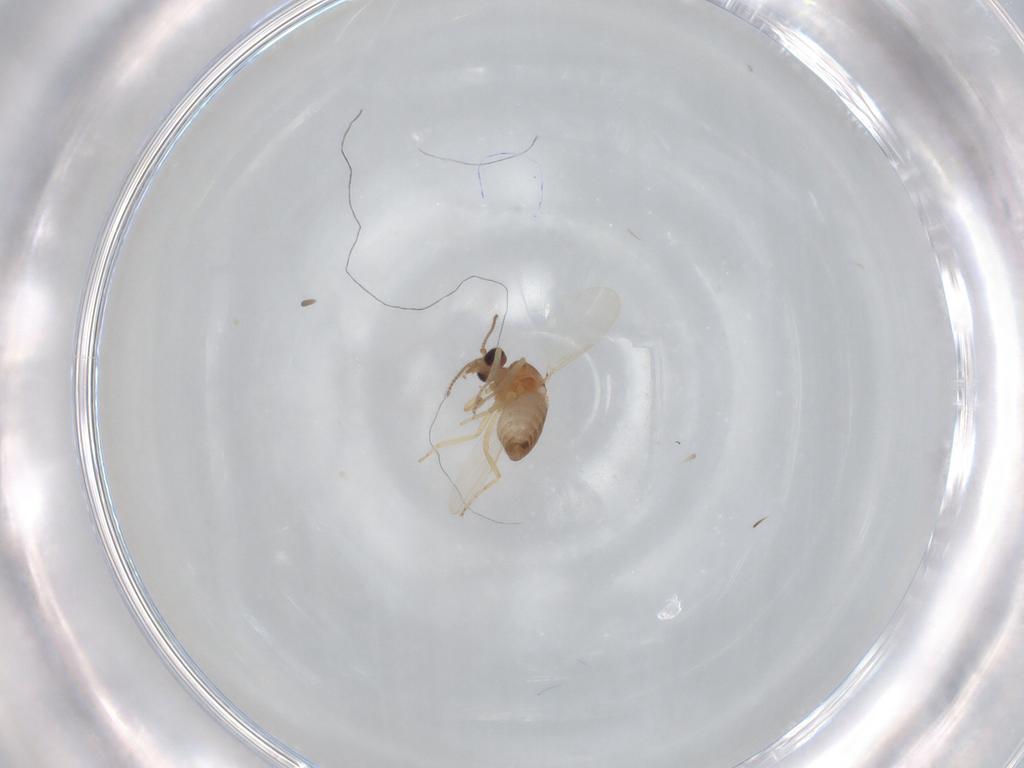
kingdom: Animalia
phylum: Arthropoda
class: Insecta
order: Diptera
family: Ceratopogonidae
